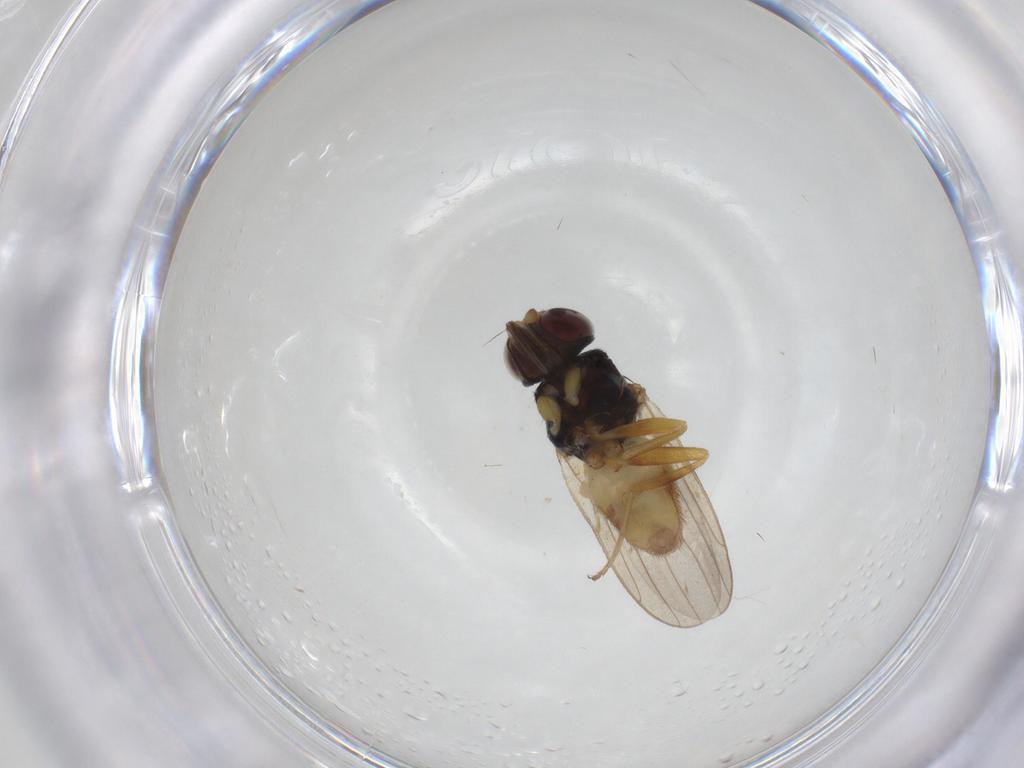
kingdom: Animalia
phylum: Arthropoda
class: Insecta
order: Diptera
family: Chloropidae
